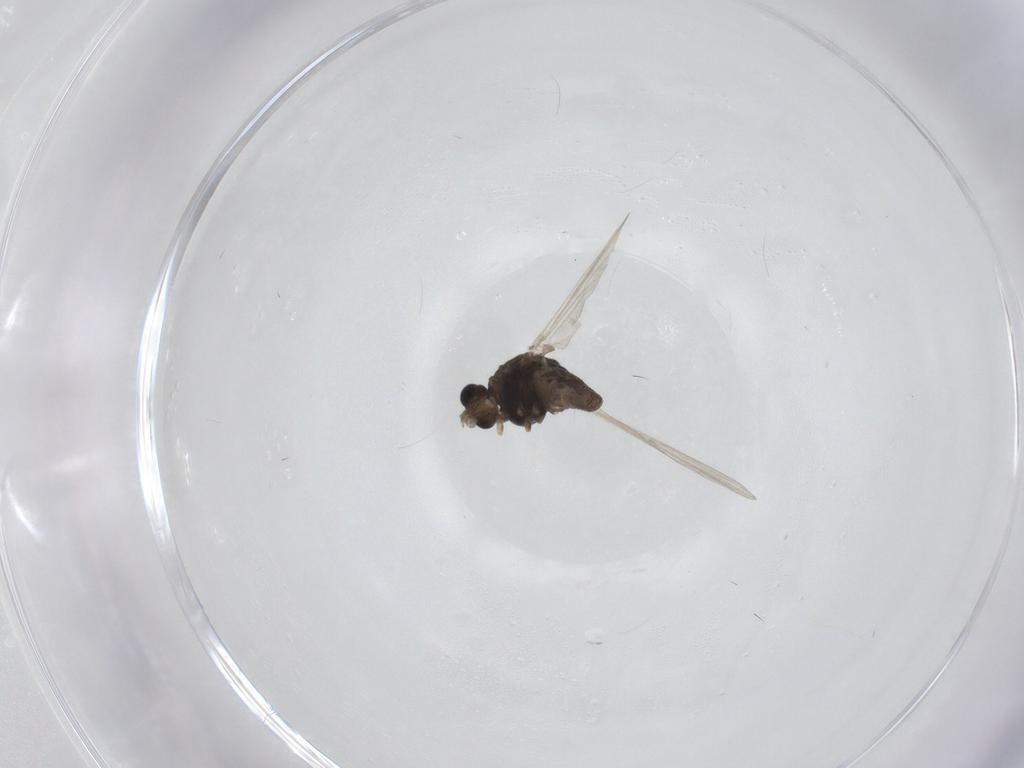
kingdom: Animalia
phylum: Arthropoda
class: Insecta
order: Diptera
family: Chironomidae
